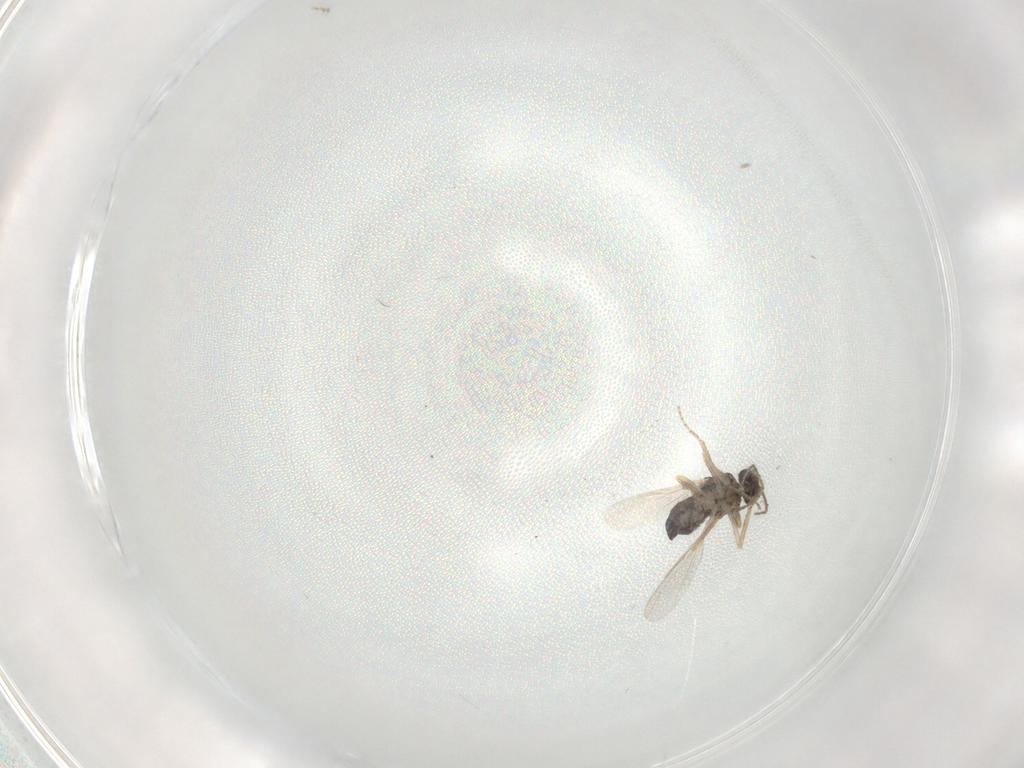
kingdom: Animalia
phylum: Arthropoda
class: Insecta
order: Diptera
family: Ceratopogonidae
